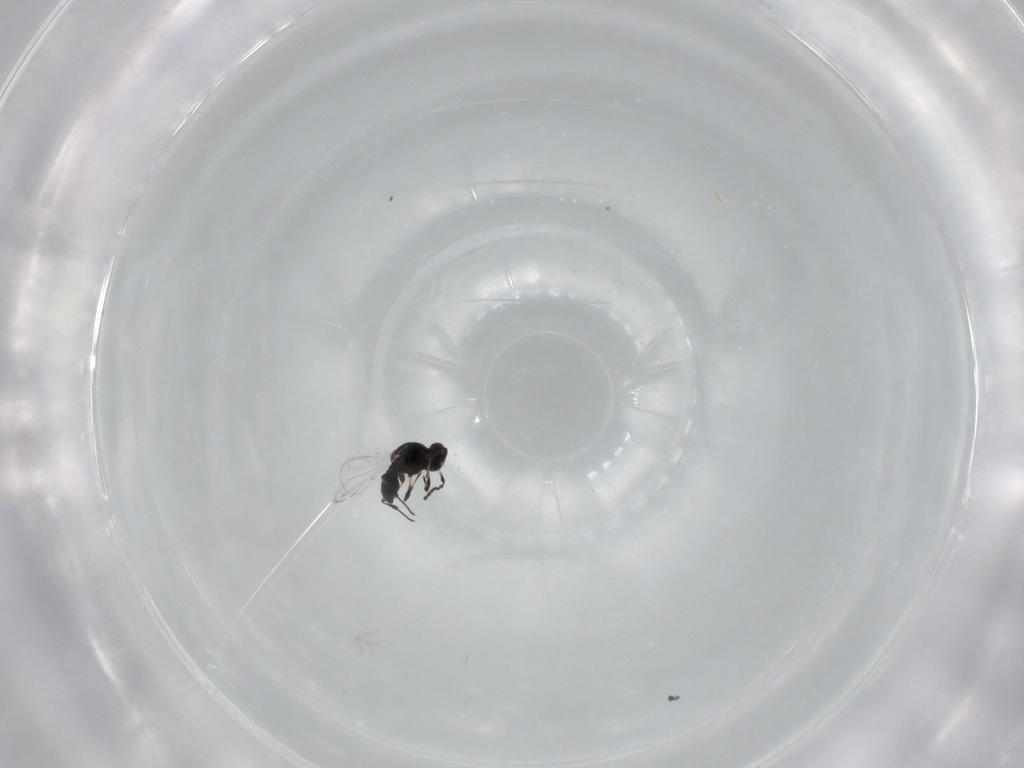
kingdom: Animalia
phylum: Arthropoda
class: Insecta
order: Hymenoptera
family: Platygastridae
